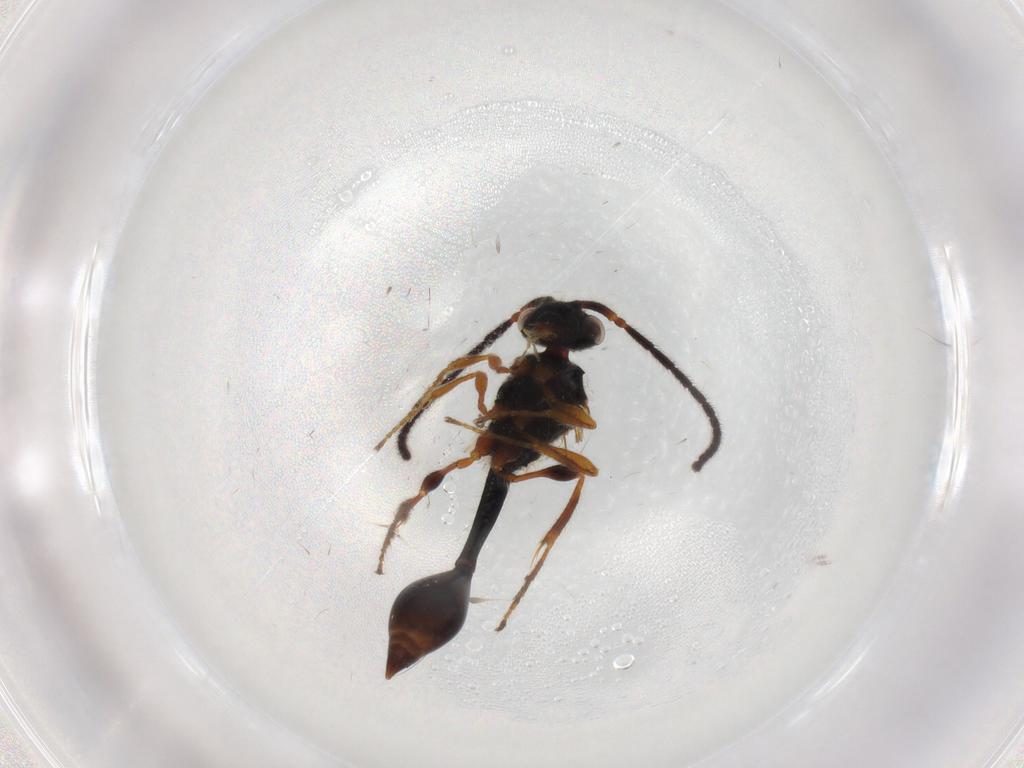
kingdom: Animalia
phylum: Arthropoda
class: Insecta
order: Hymenoptera
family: Diapriidae
